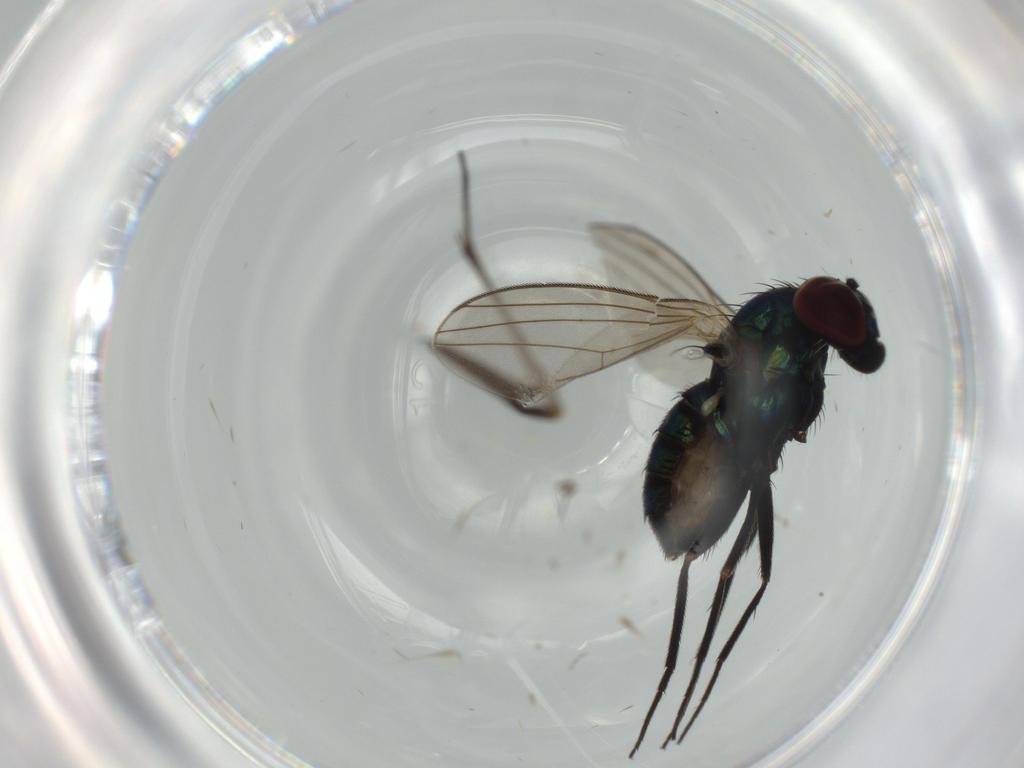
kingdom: Animalia
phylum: Arthropoda
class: Insecta
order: Diptera
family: Dolichopodidae
